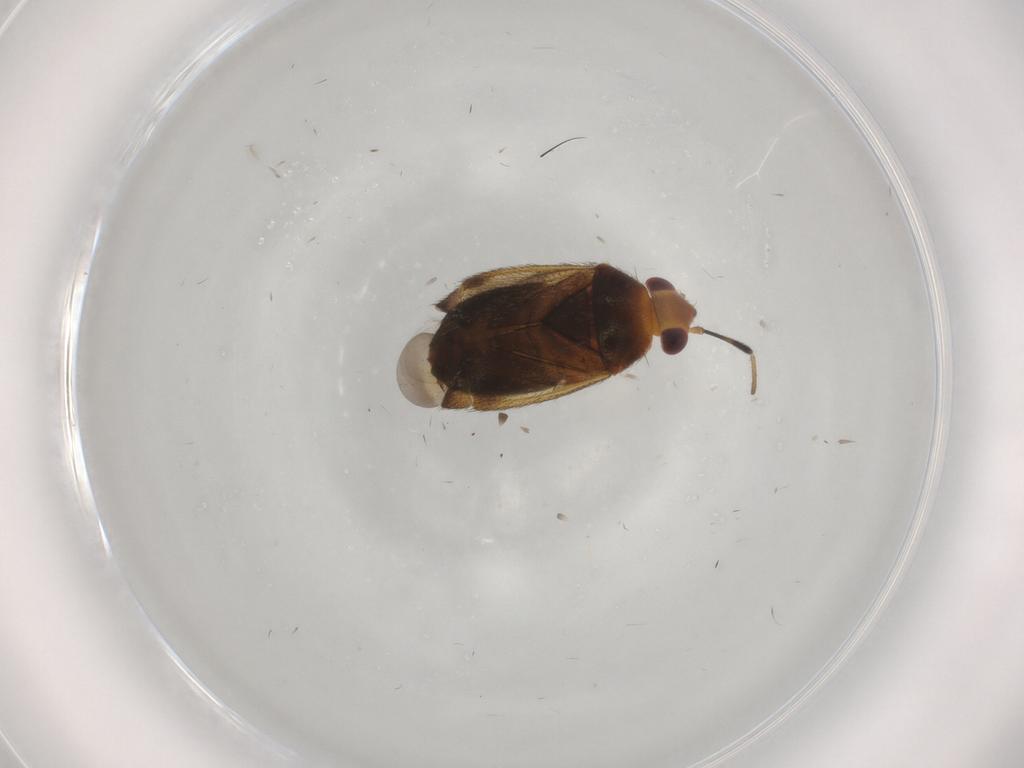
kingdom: Animalia
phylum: Arthropoda
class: Insecta
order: Hemiptera
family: Miridae
